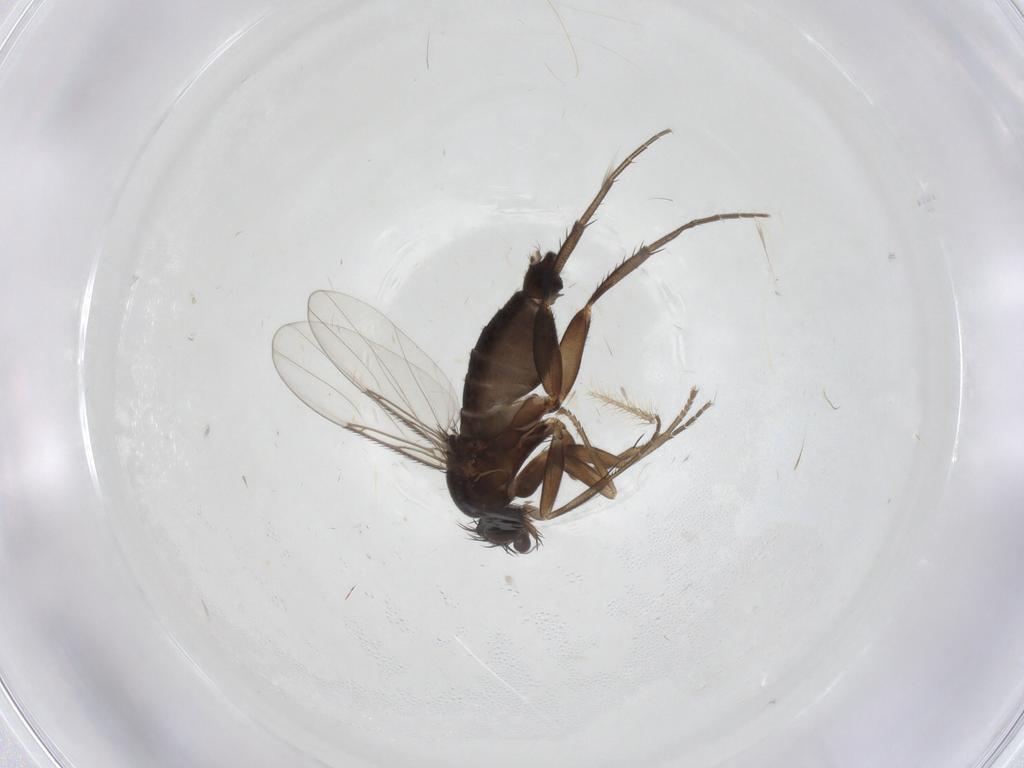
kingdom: Animalia
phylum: Arthropoda
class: Insecta
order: Diptera
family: Phoridae
